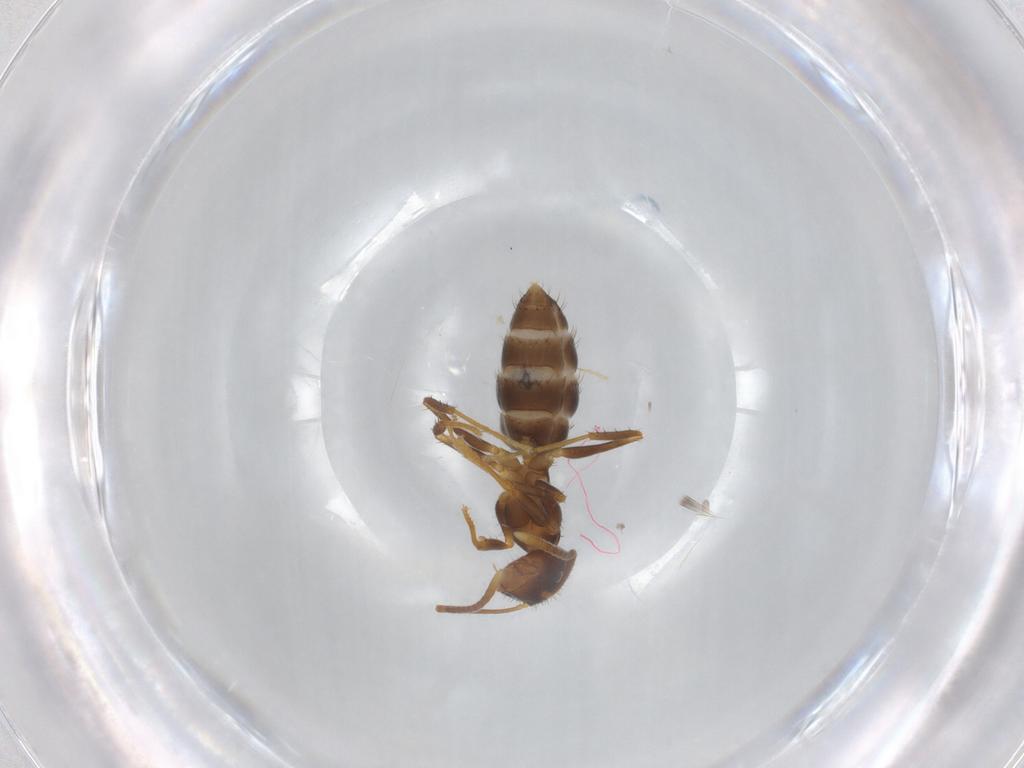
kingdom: Animalia
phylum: Arthropoda
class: Insecta
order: Hymenoptera
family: Formicidae
